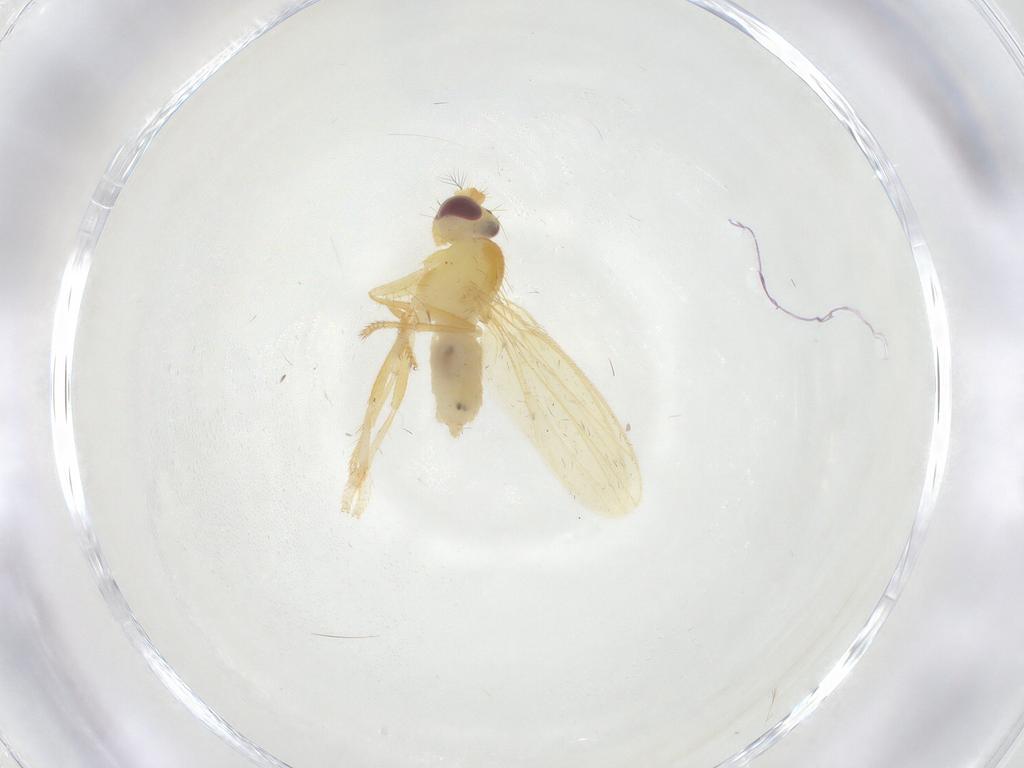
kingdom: Animalia
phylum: Arthropoda
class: Insecta
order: Diptera
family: Periscelididae
